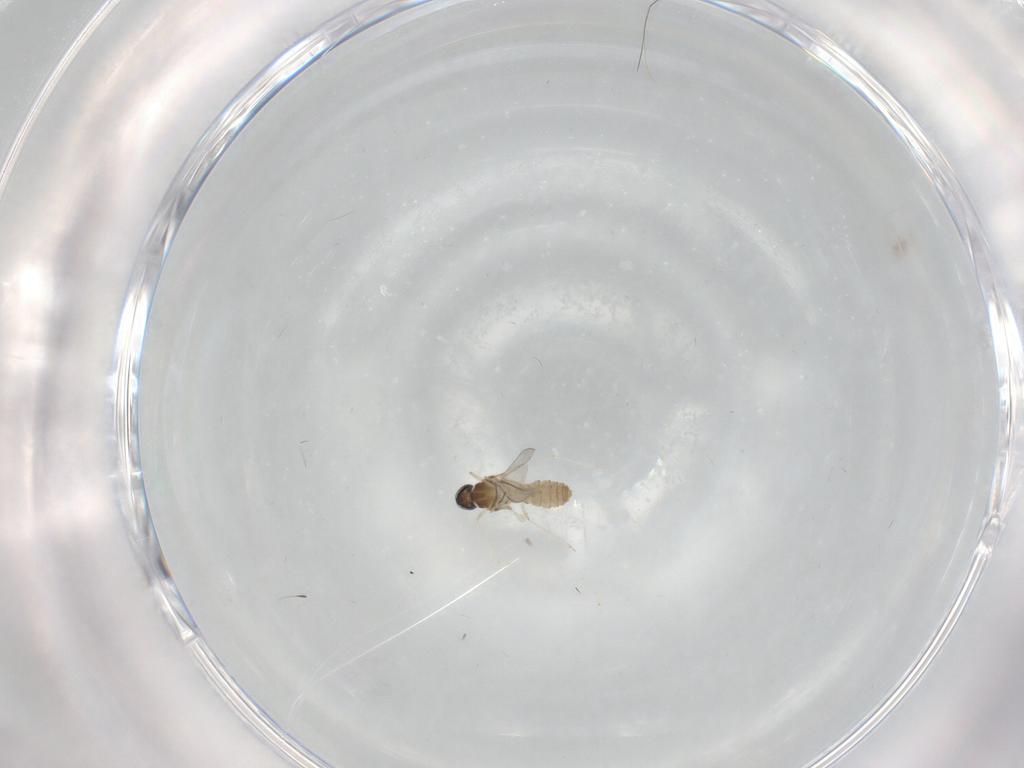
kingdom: Animalia
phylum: Arthropoda
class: Insecta
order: Diptera
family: Cecidomyiidae
